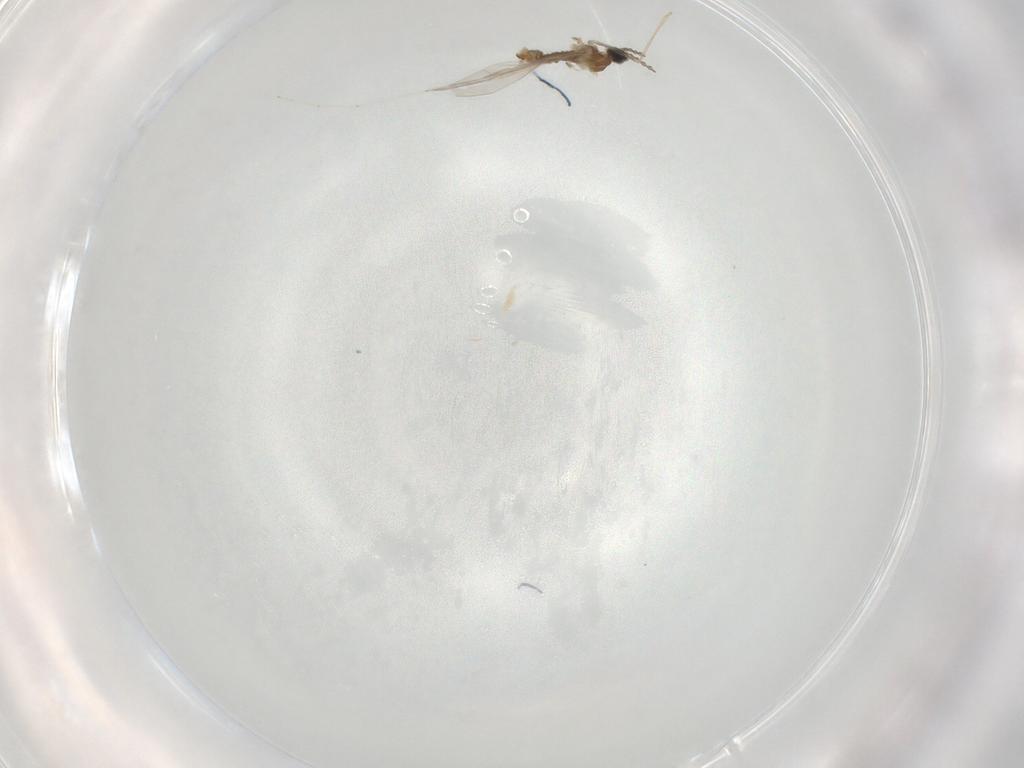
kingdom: Animalia
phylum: Arthropoda
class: Insecta
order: Diptera
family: Cecidomyiidae
